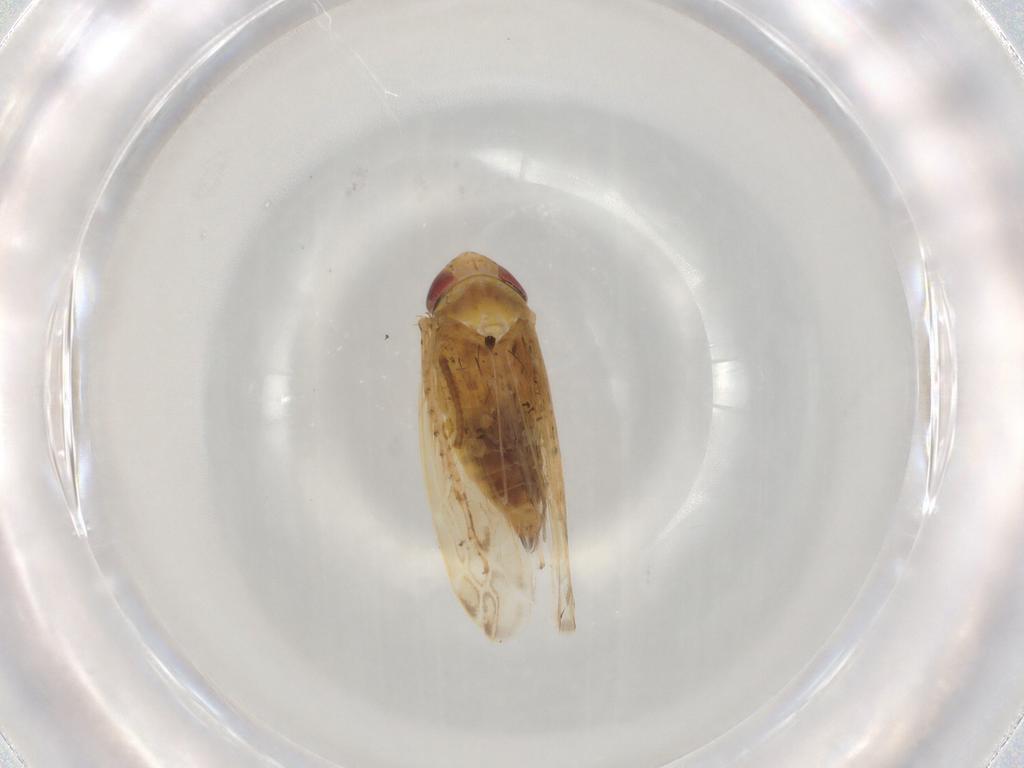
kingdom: Animalia
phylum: Arthropoda
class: Insecta
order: Hemiptera
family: Cicadellidae
